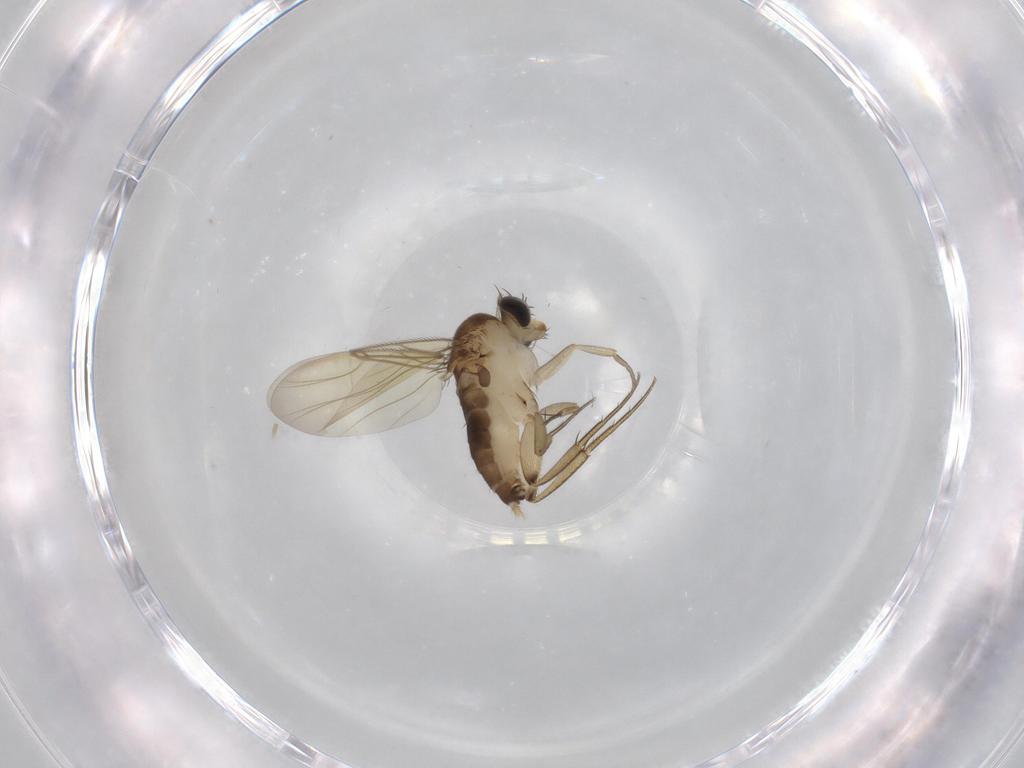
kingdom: Animalia
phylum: Arthropoda
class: Insecta
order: Diptera
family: Phoridae
